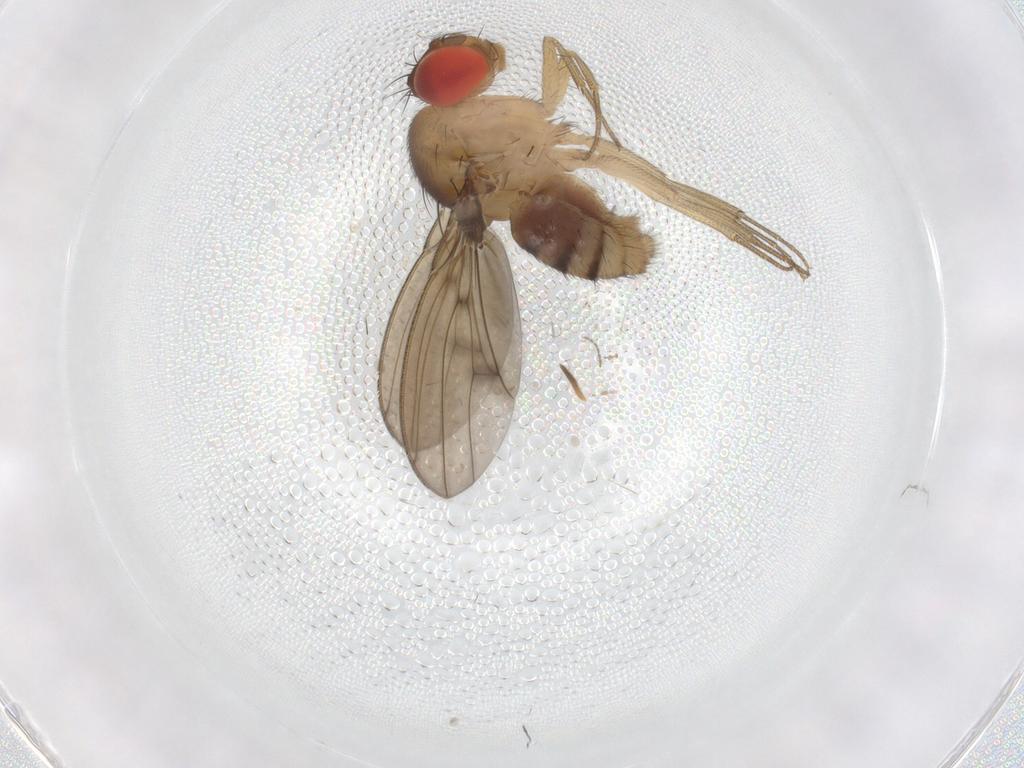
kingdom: Animalia
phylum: Arthropoda
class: Insecta
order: Diptera
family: Drosophilidae
